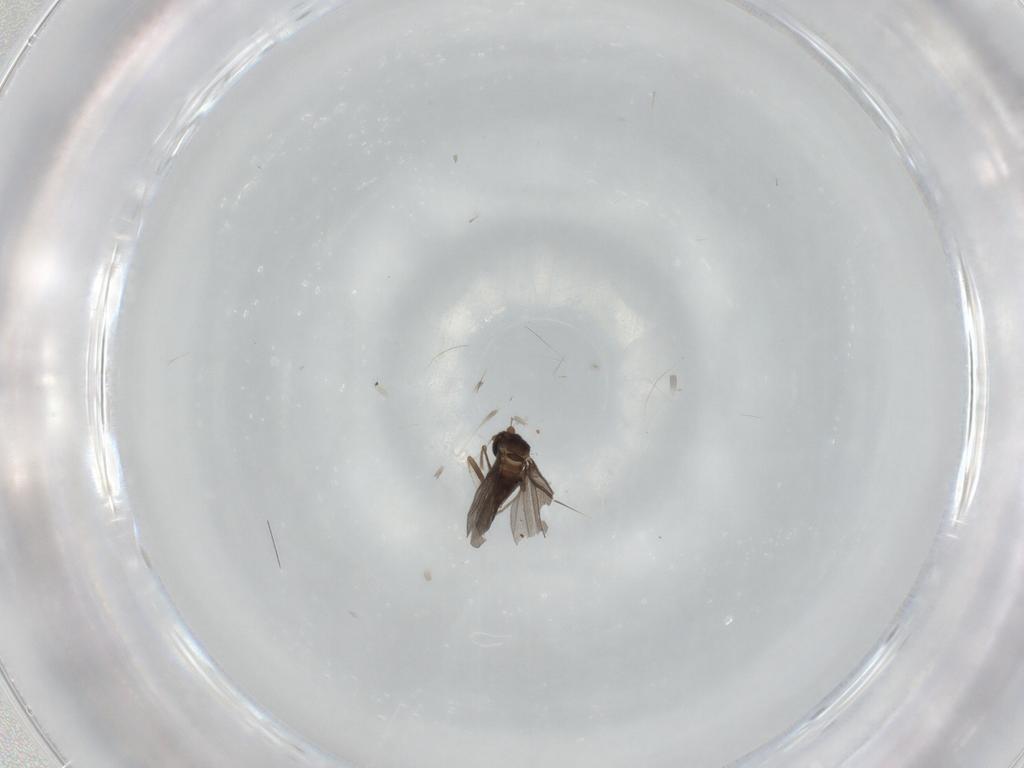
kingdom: Animalia
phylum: Arthropoda
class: Insecta
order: Diptera
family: Phoridae
